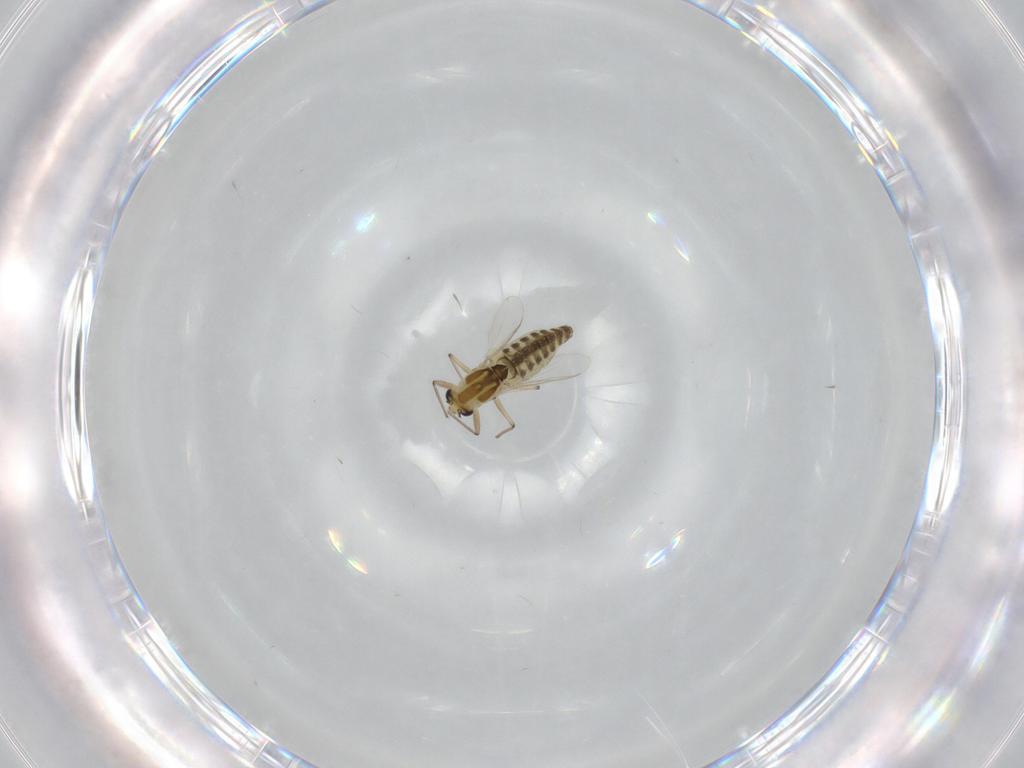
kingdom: Animalia
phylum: Arthropoda
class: Insecta
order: Diptera
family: Chironomidae
